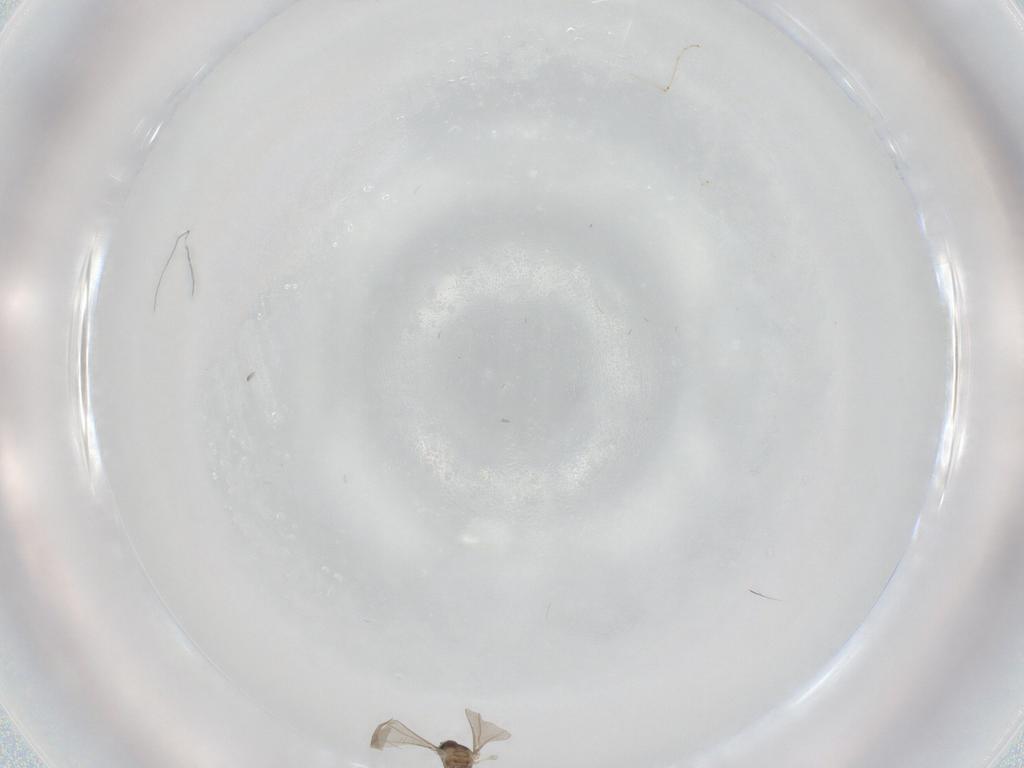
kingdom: Animalia
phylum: Arthropoda
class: Insecta
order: Diptera
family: Cecidomyiidae
